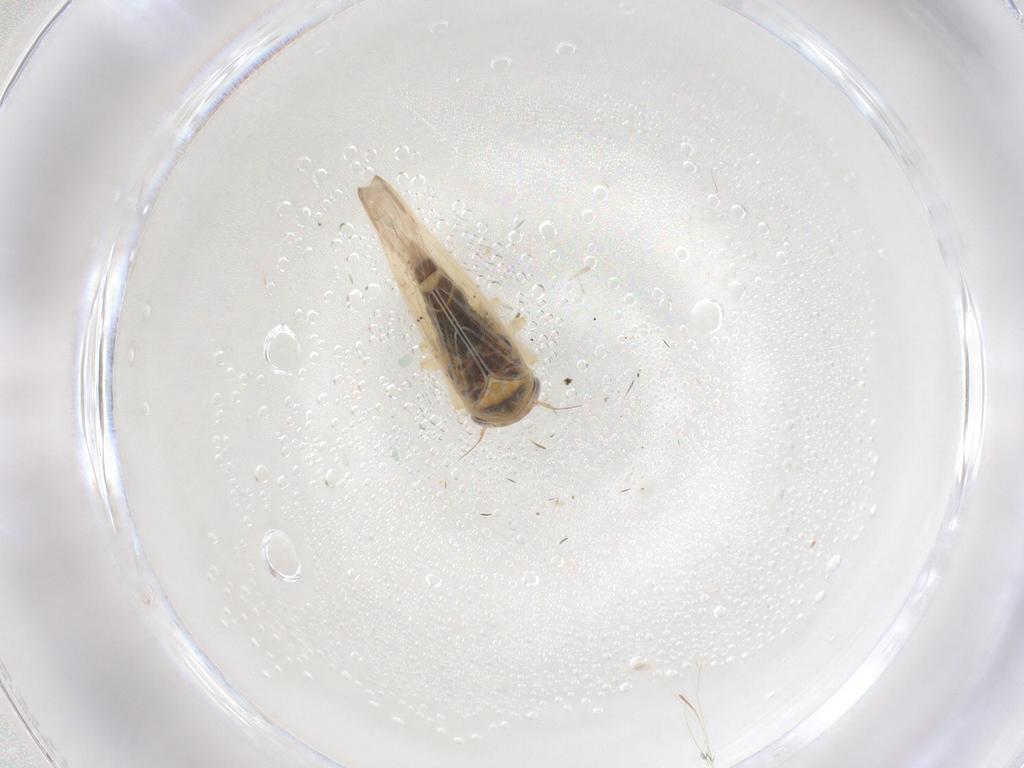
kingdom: Animalia
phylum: Arthropoda
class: Insecta
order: Hemiptera
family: Cicadellidae
